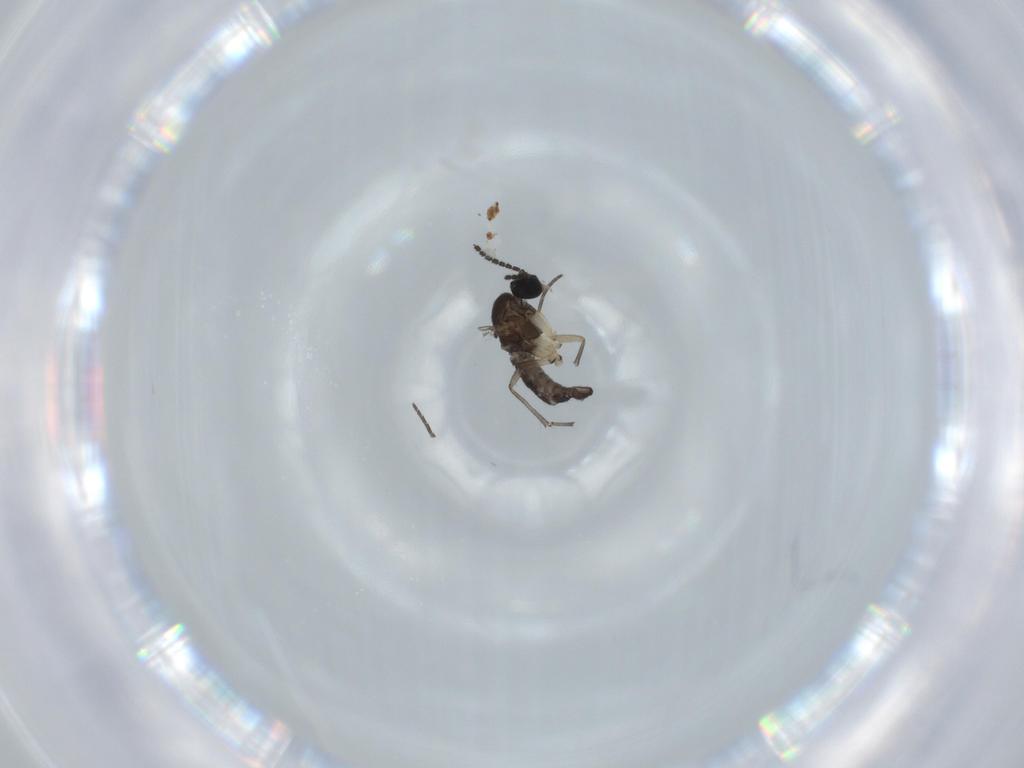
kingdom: Animalia
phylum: Arthropoda
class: Insecta
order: Diptera
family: Sciaridae
